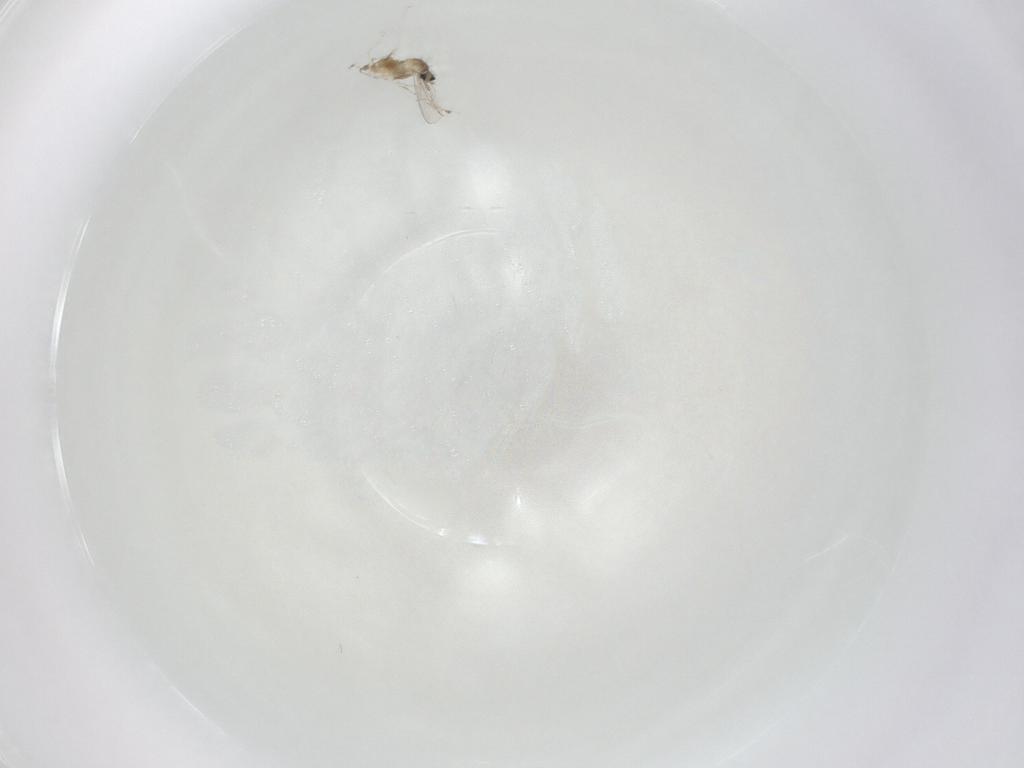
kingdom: Animalia
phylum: Arthropoda
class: Insecta
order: Diptera
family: Cecidomyiidae
